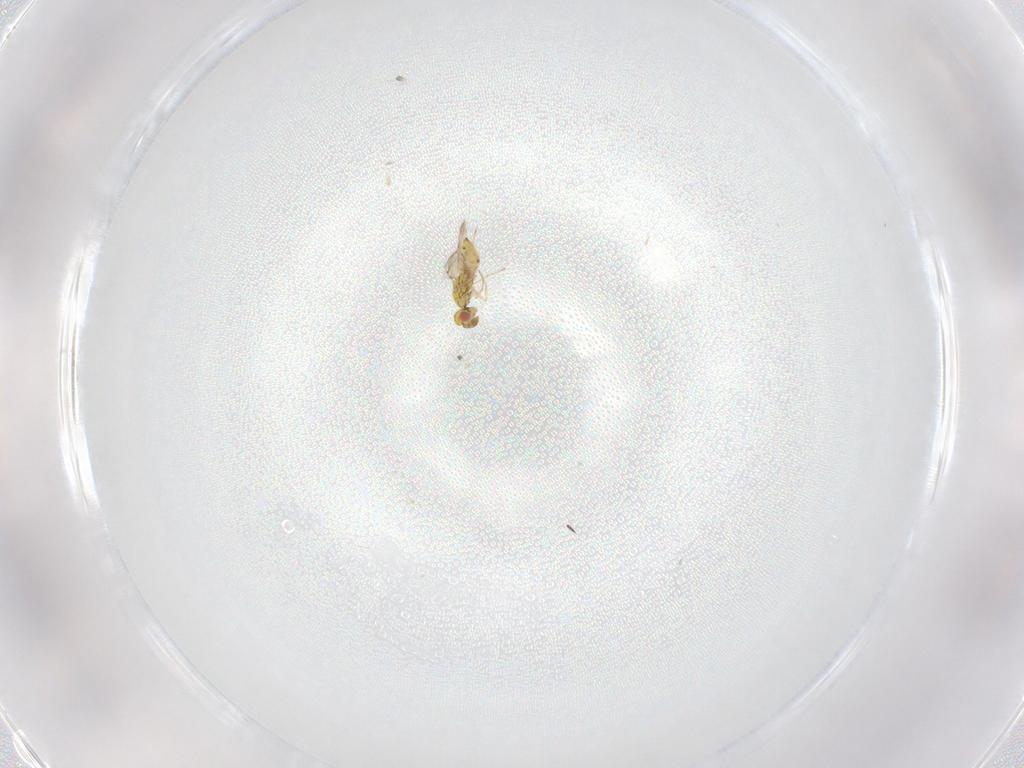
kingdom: Animalia
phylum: Arthropoda
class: Insecta
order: Hymenoptera
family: Eulophidae
